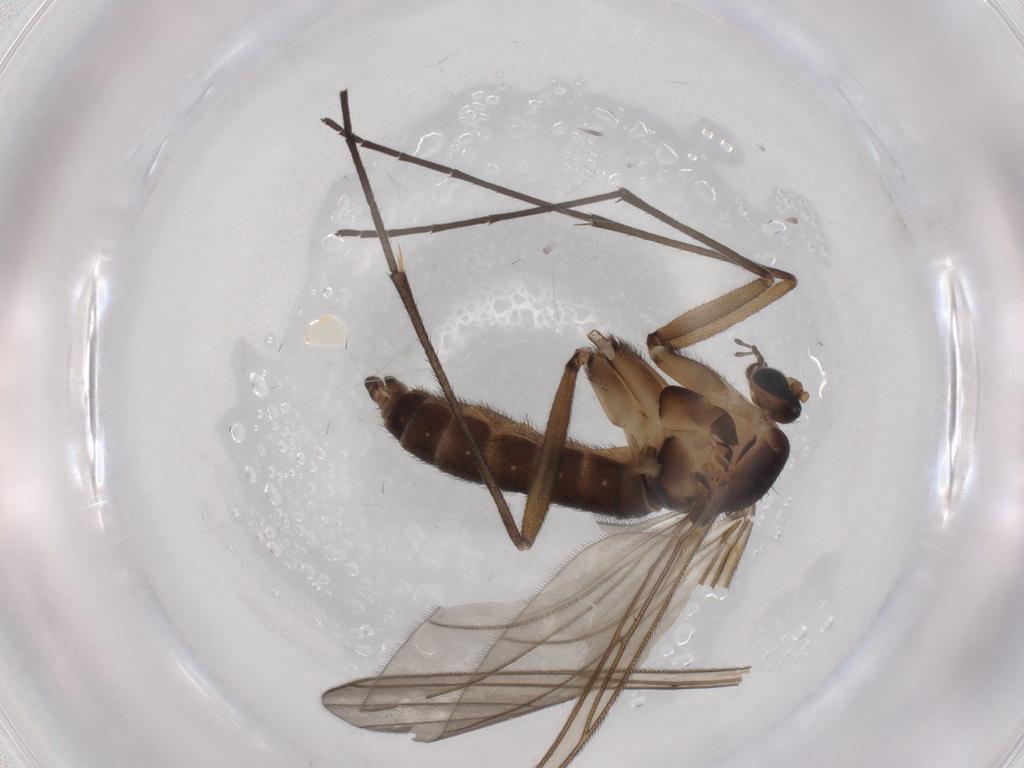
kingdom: Animalia
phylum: Arthropoda
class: Insecta
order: Diptera
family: Sciaridae
